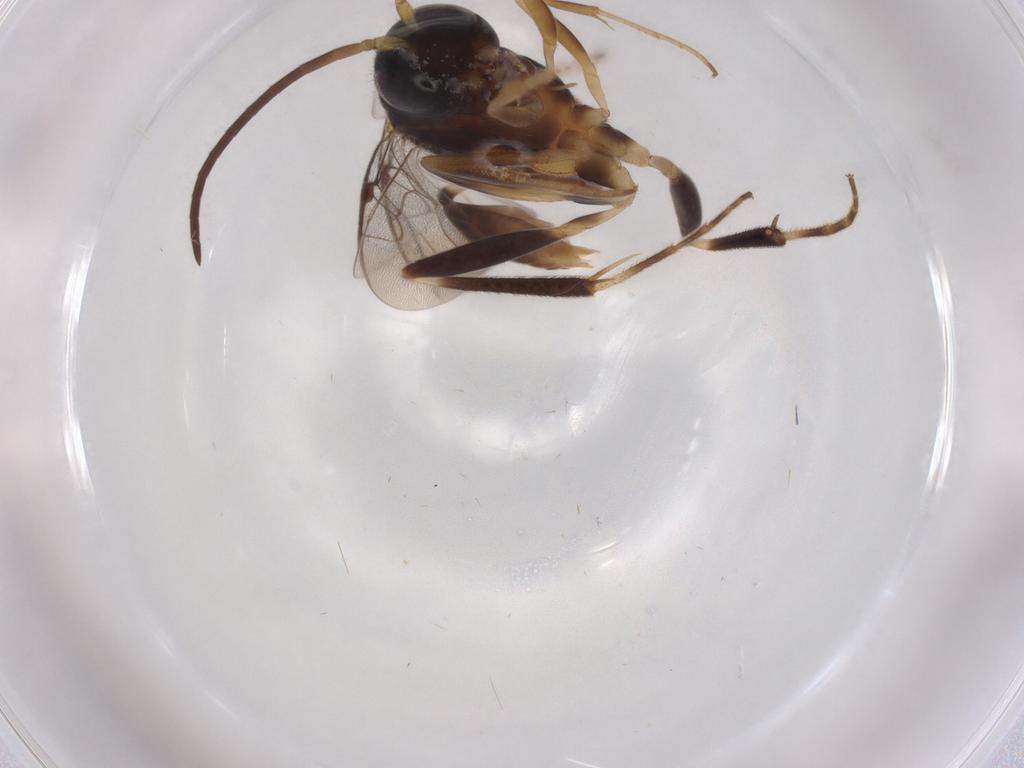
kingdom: Animalia
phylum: Arthropoda
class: Insecta
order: Hymenoptera
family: Evaniidae
